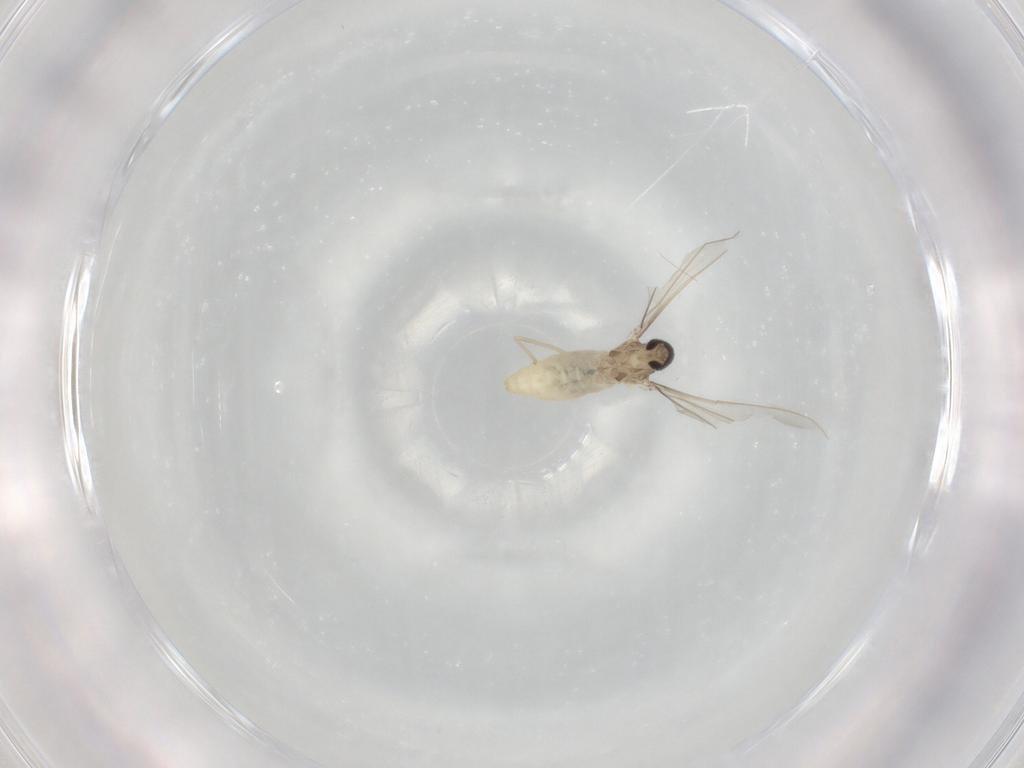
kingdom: Animalia
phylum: Arthropoda
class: Insecta
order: Diptera
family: Cecidomyiidae
